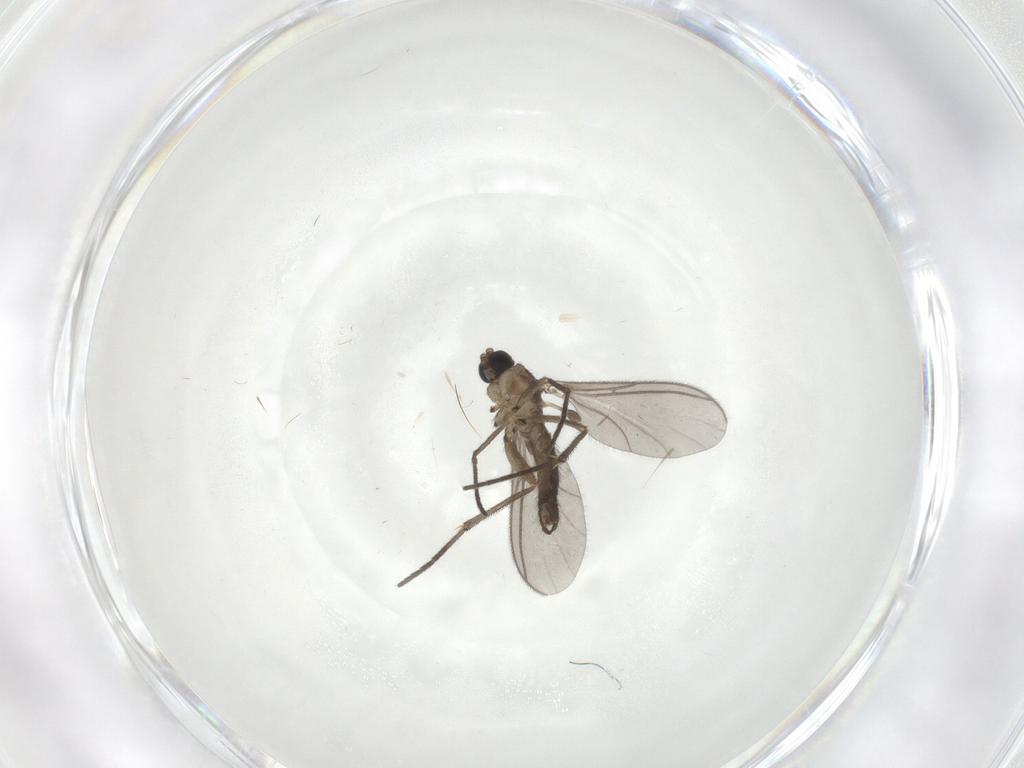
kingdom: Animalia
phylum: Arthropoda
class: Insecta
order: Diptera
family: Sciaridae
